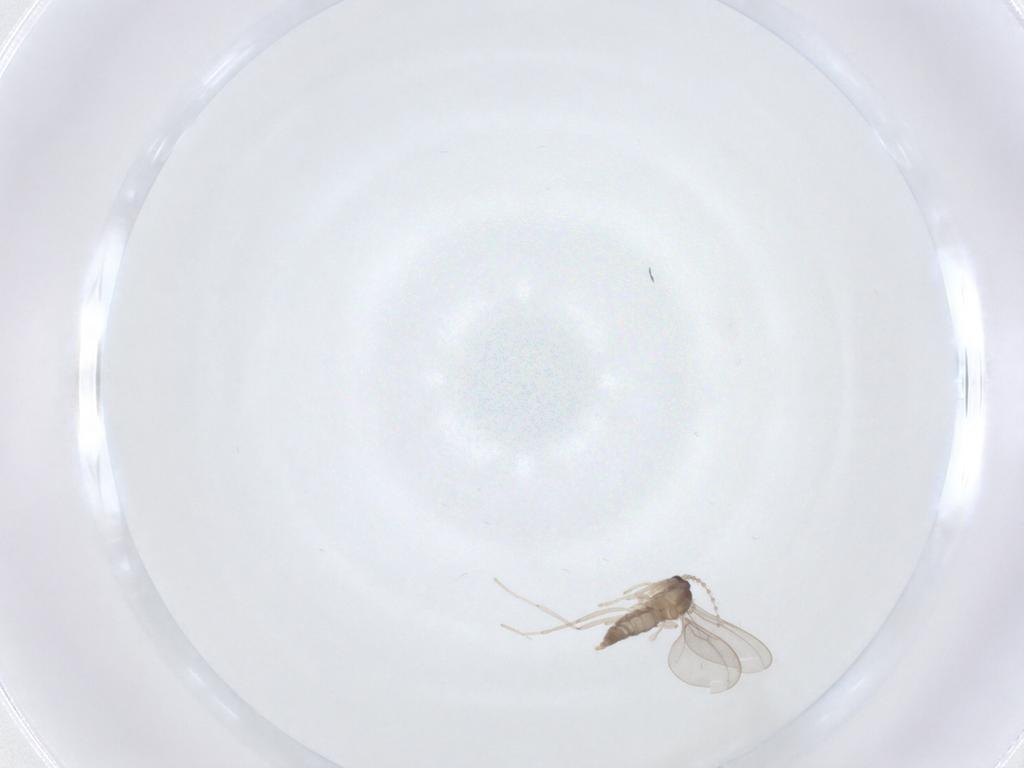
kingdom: Animalia
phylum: Arthropoda
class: Insecta
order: Diptera
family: Cecidomyiidae
